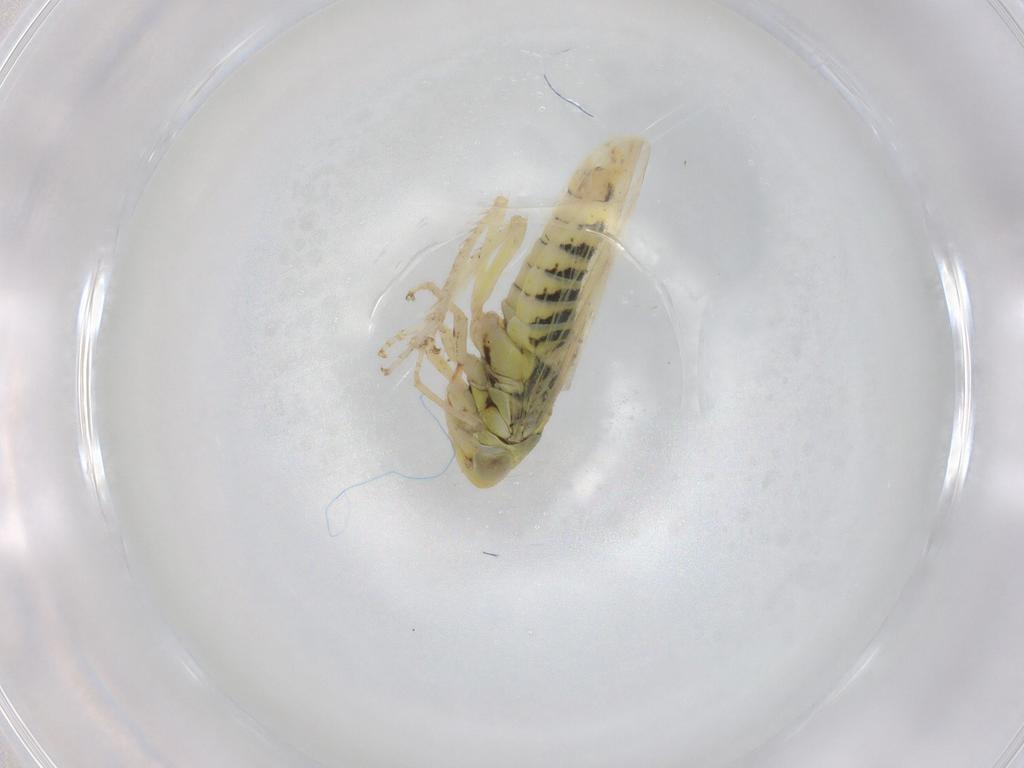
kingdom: Animalia
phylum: Arthropoda
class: Insecta
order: Hemiptera
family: Cicadellidae
